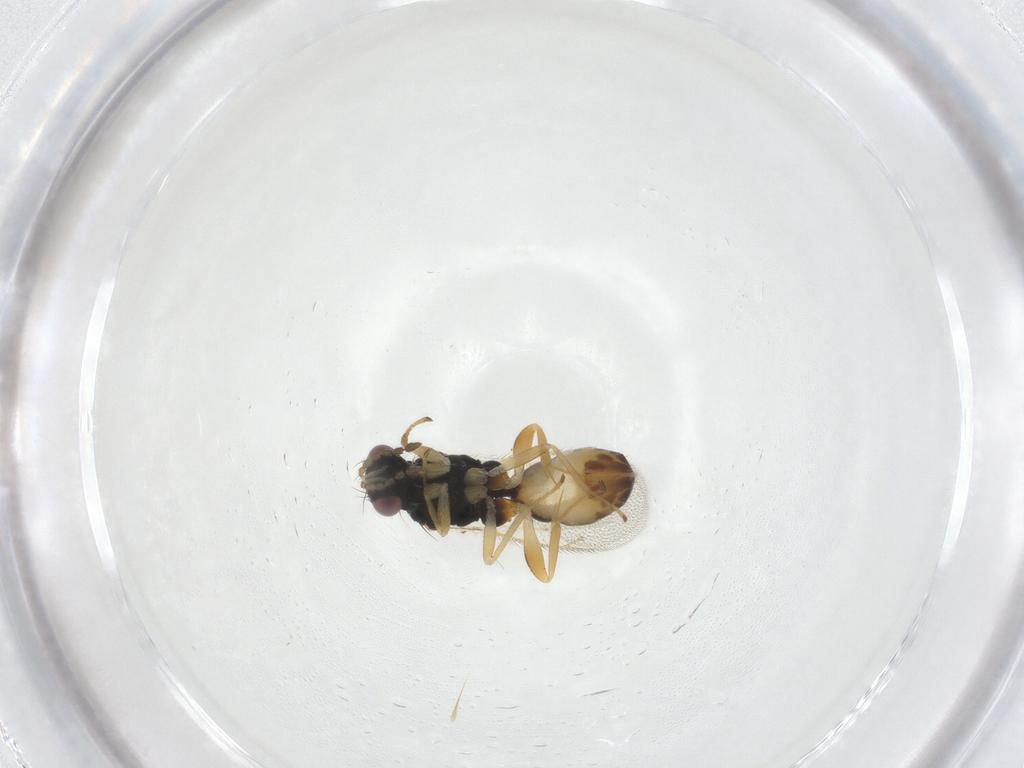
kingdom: Animalia
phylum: Arthropoda
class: Insecta
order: Hymenoptera
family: Eulophidae
